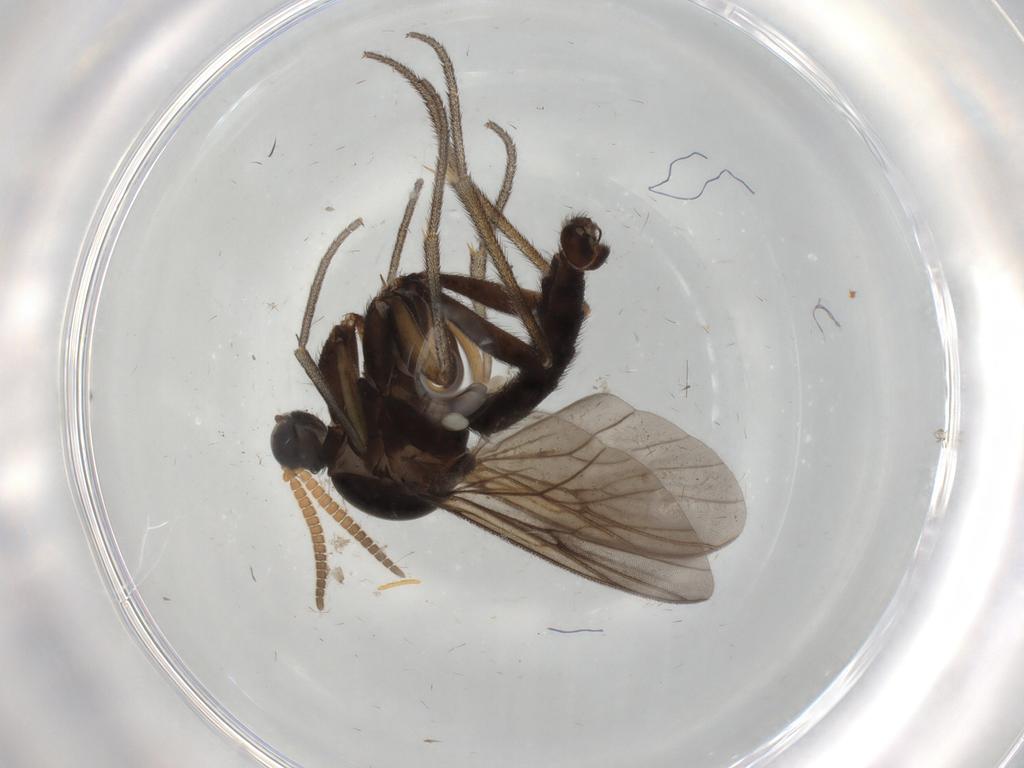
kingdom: Animalia
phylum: Arthropoda
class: Insecta
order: Diptera
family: Mycetophilidae
